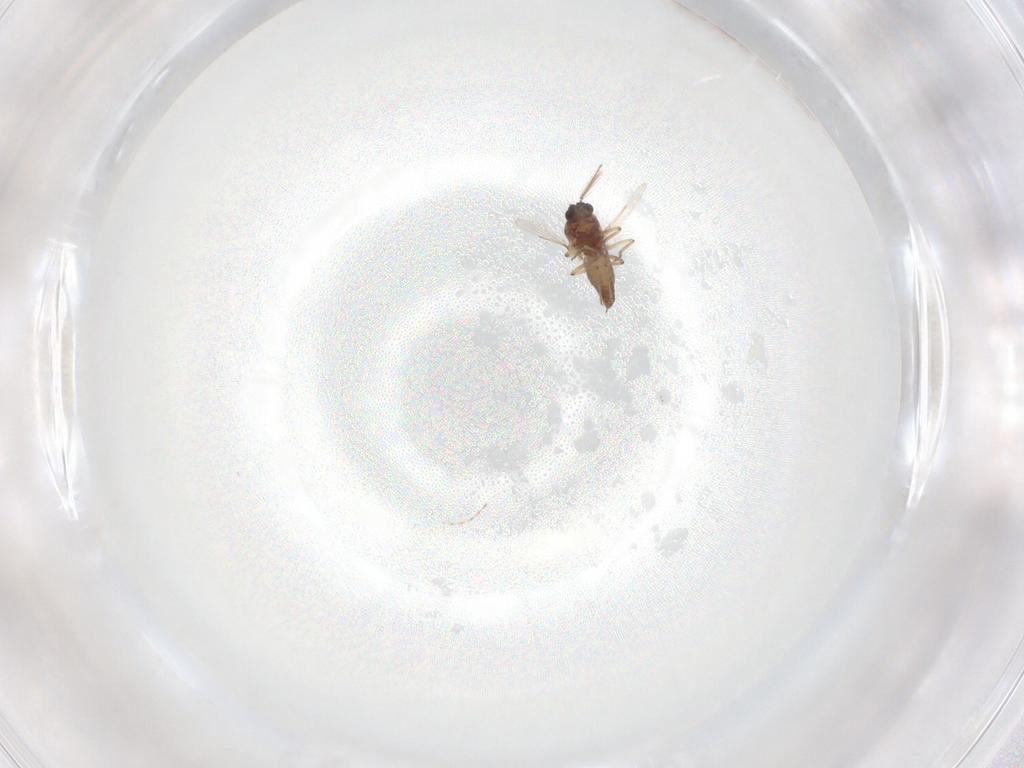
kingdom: Animalia
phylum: Arthropoda
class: Insecta
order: Diptera
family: Ceratopogonidae
